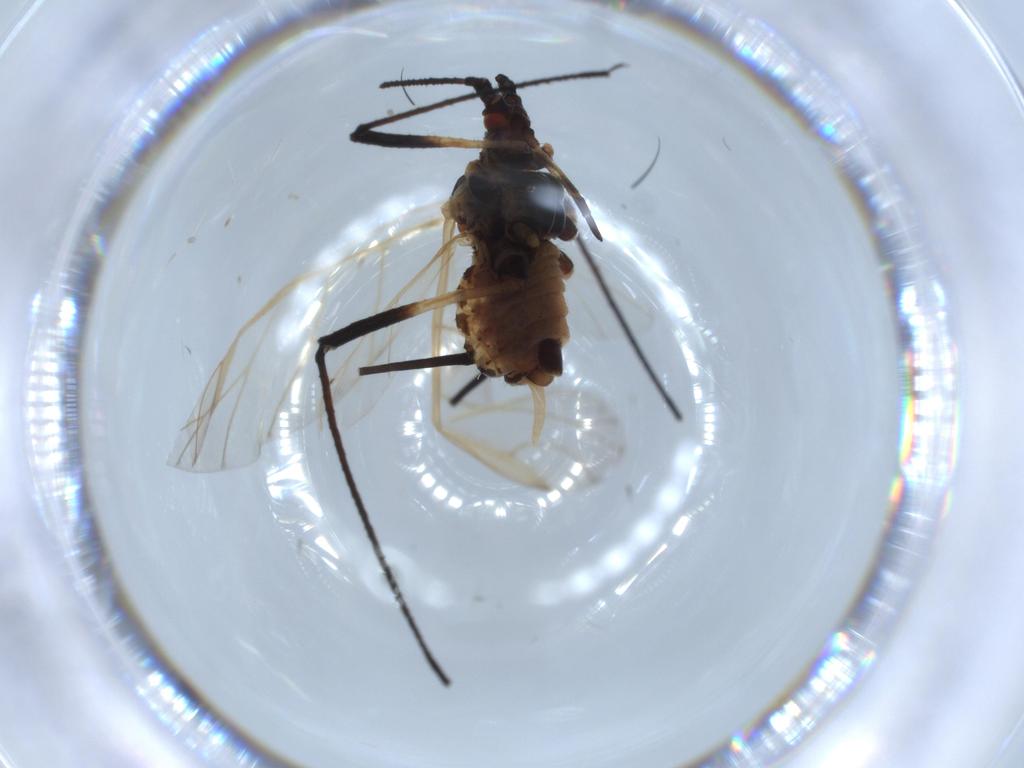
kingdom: Animalia
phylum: Arthropoda
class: Insecta
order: Hemiptera
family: Aphididae
